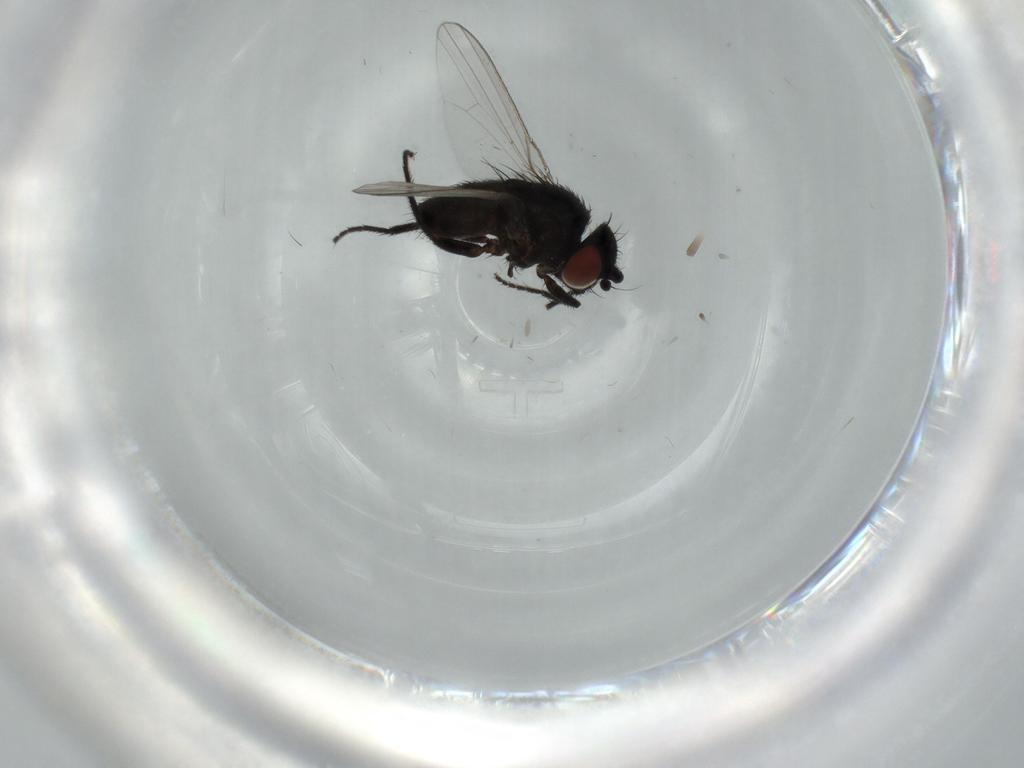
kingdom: Animalia
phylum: Arthropoda
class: Insecta
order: Diptera
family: Milichiidae
